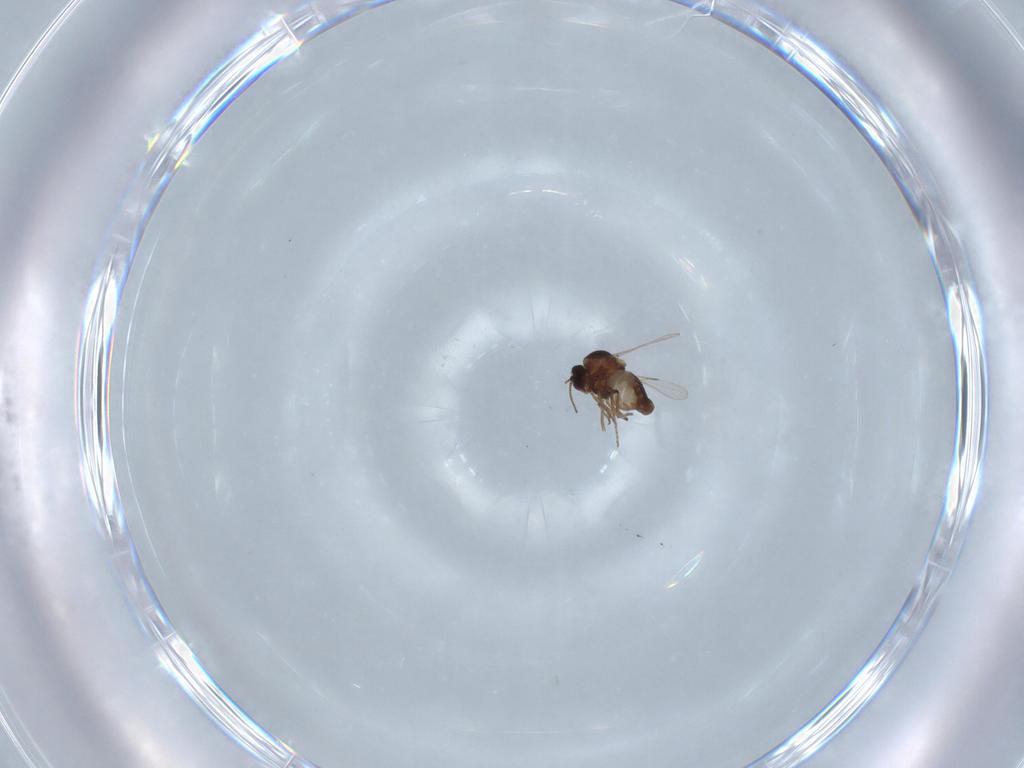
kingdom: Animalia
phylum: Arthropoda
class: Insecta
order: Diptera
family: Ceratopogonidae
